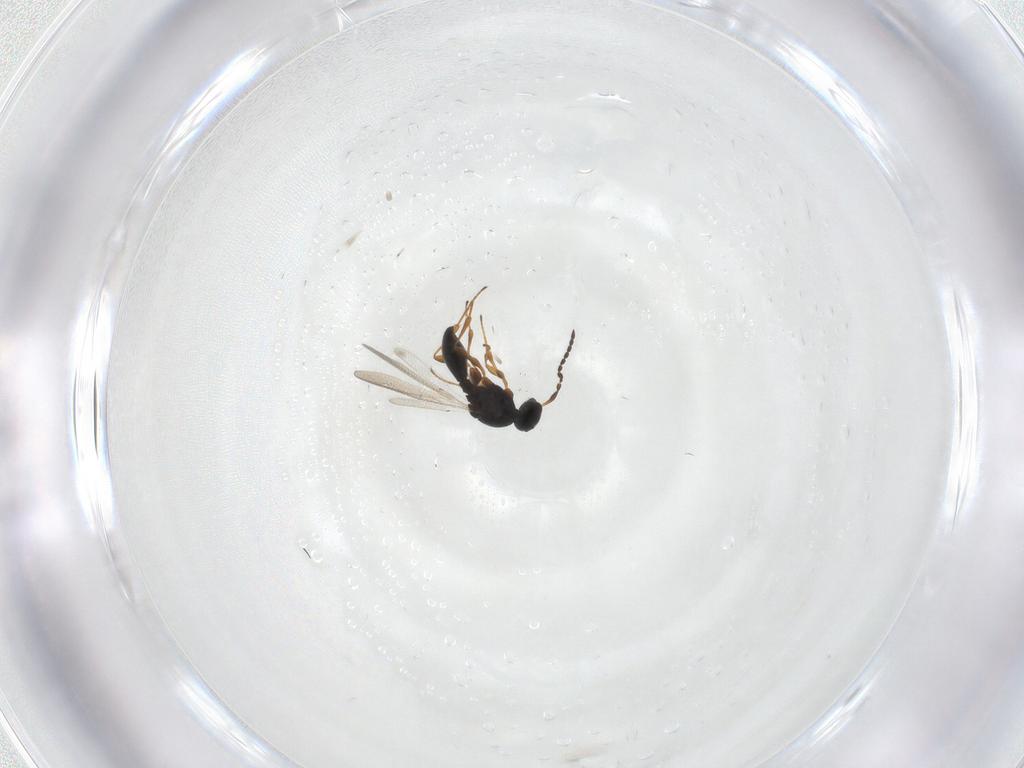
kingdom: Animalia
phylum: Arthropoda
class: Insecta
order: Hymenoptera
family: Platygastridae
